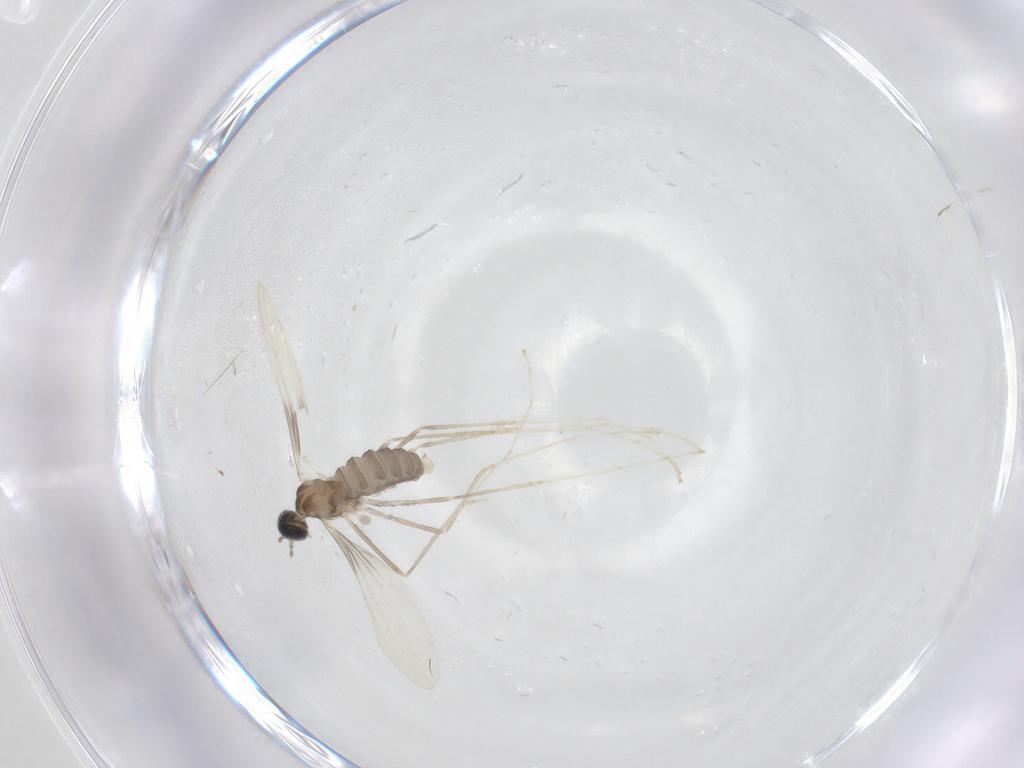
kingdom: Animalia
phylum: Arthropoda
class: Insecta
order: Diptera
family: Cecidomyiidae
